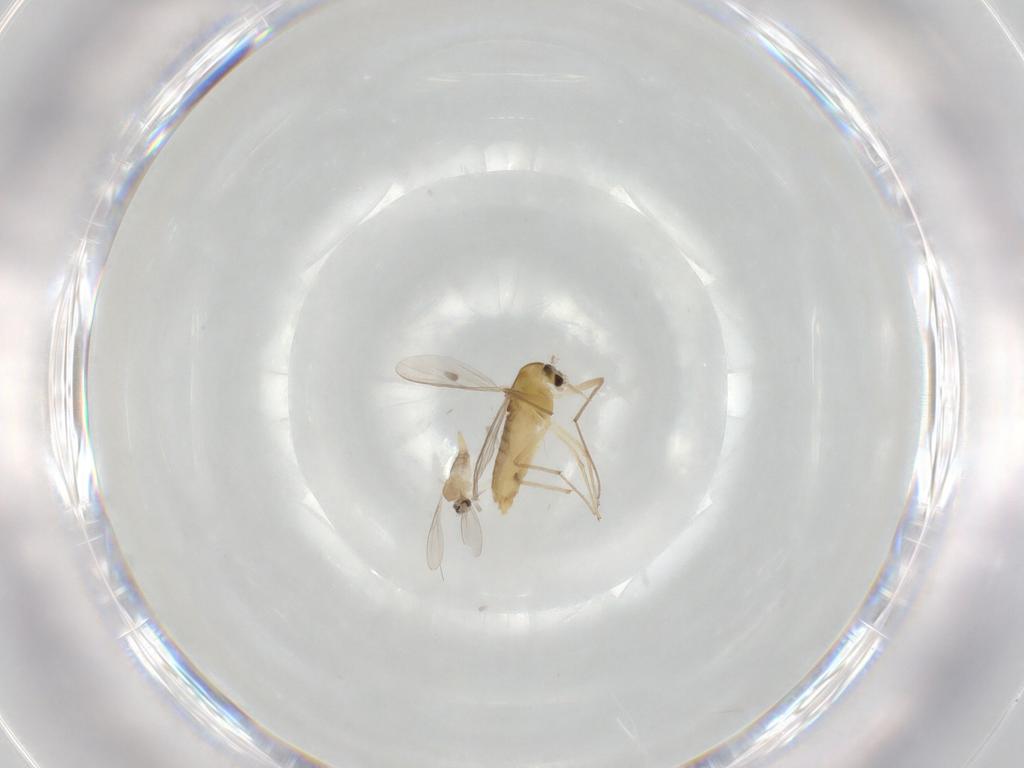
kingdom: Animalia
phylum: Arthropoda
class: Insecta
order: Diptera
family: Chironomidae
